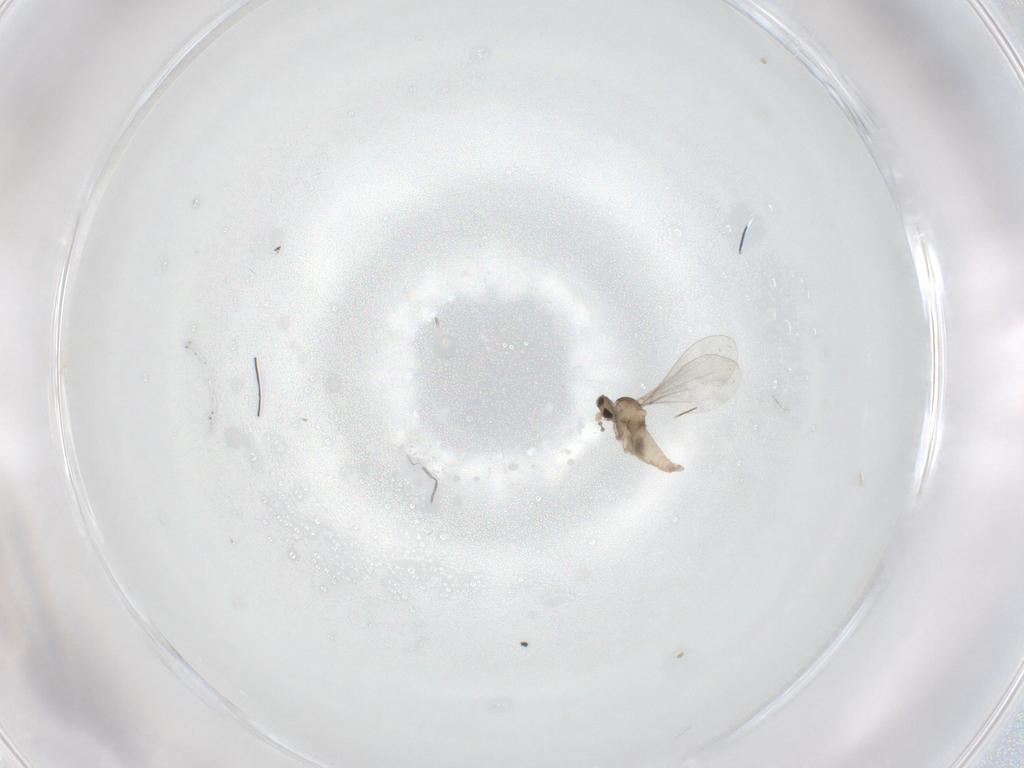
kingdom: Animalia
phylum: Arthropoda
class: Insecta
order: Diptera
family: Cecidomyiidae
